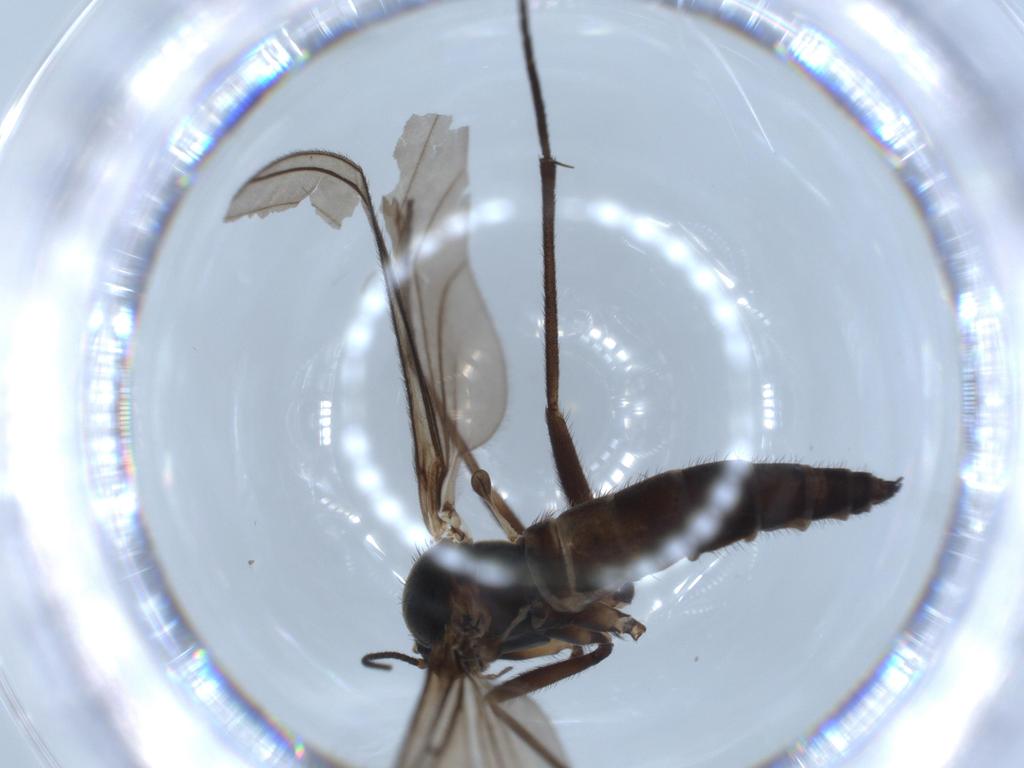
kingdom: Animalia
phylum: Arthropoda
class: Insecta
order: Diptera
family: Sciaridae
